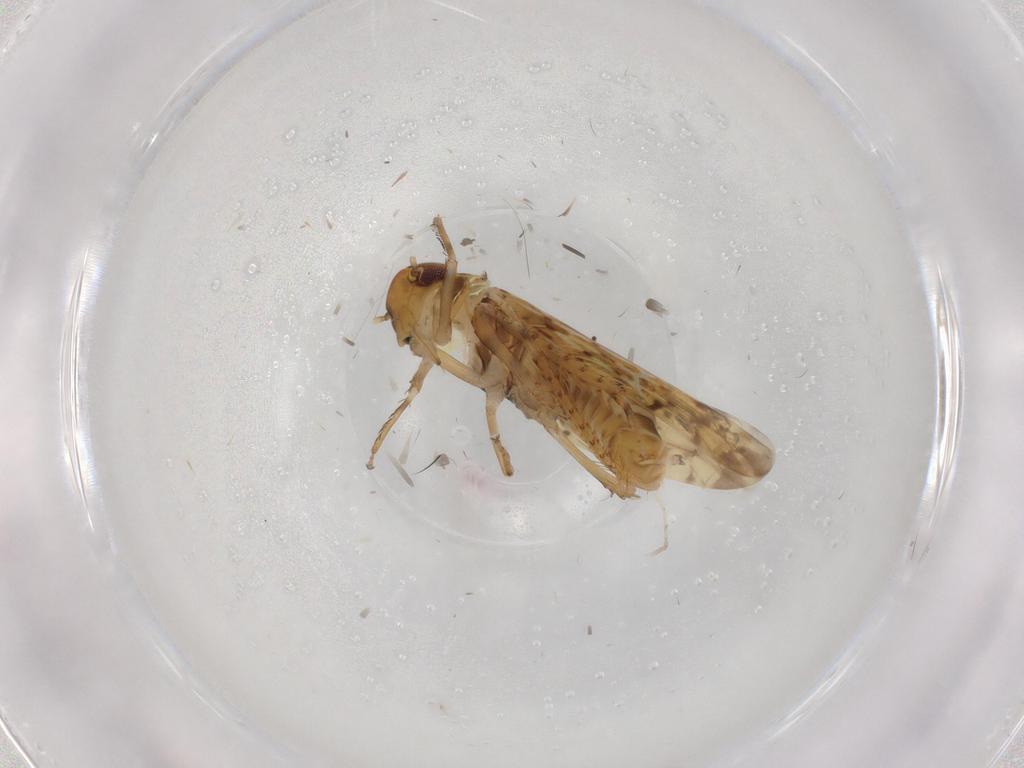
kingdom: Animalia
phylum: Arthropoda
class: Insecta
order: Hemiptera
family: Cicadellidae
